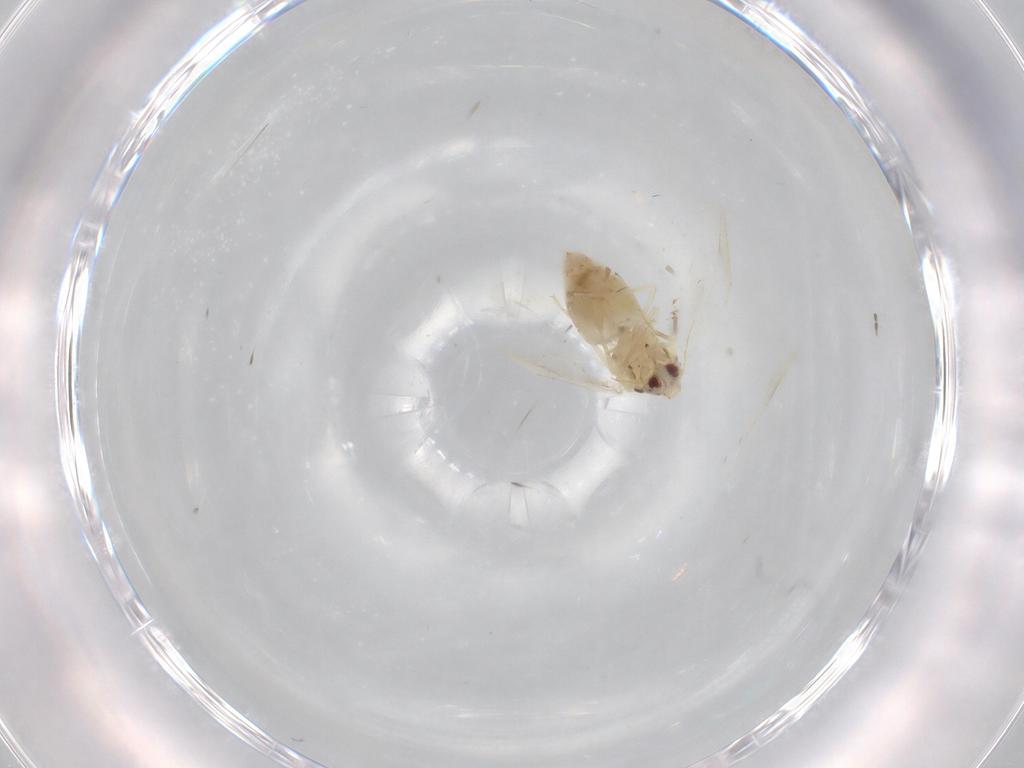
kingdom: Animalia
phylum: Arthropoda
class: Insecta
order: Hemiptera
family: Aleyrodidae
